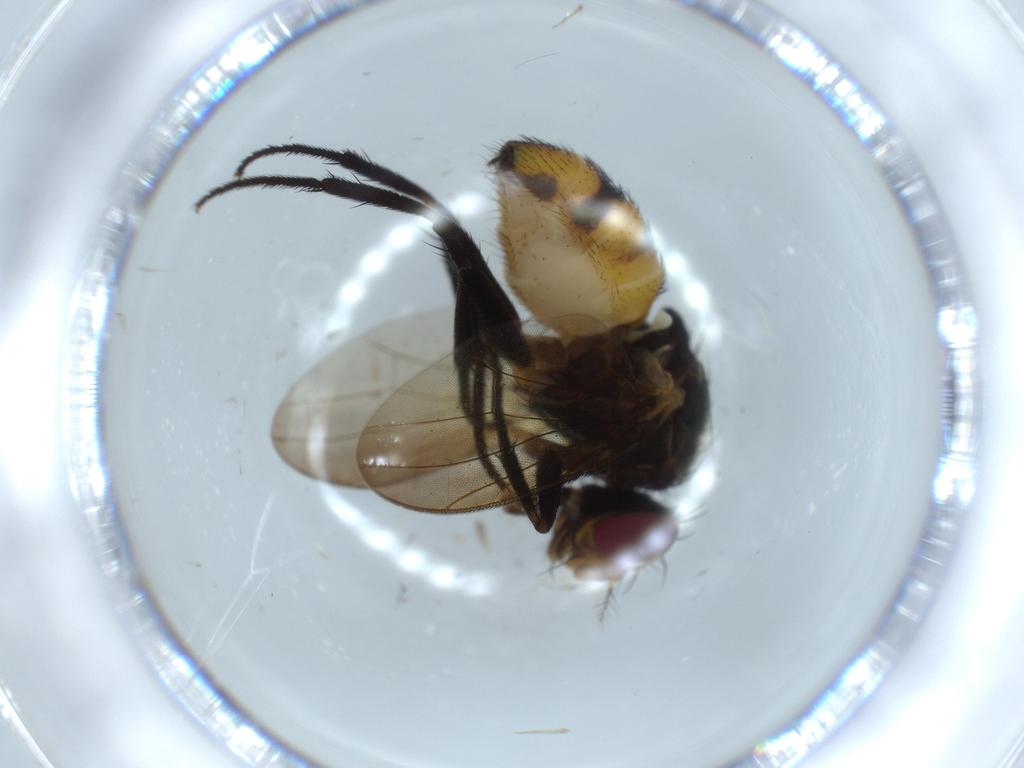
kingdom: Animalia
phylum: Arthropoda
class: Insecta
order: Diptera
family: Anthomyiidae
